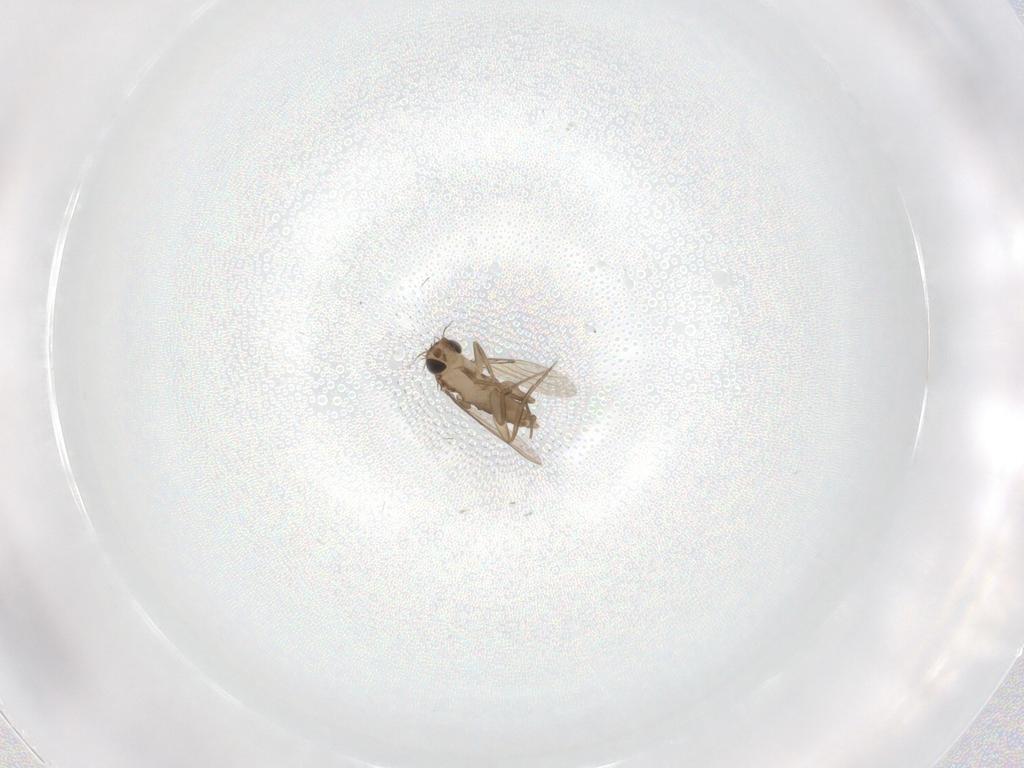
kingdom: Animalia
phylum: Arthropoda
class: Insecta
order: Diptera
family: Phoridae
